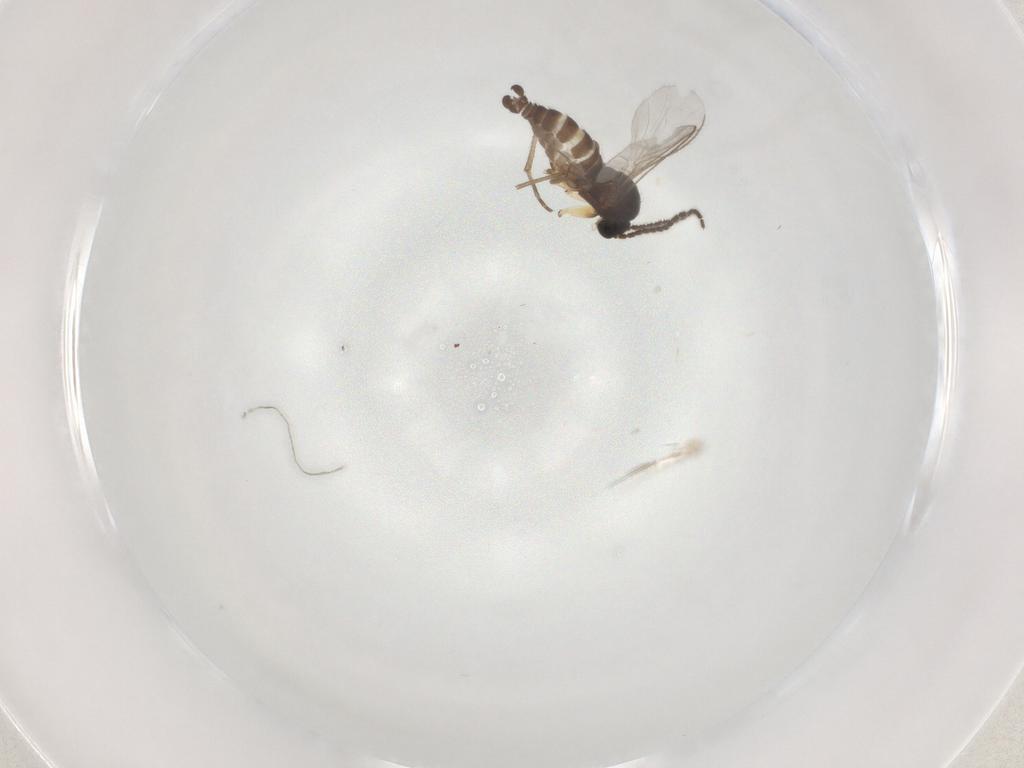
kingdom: Animalia
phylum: Arthropoda
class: Insecta
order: Diptera
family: Sciaridae
